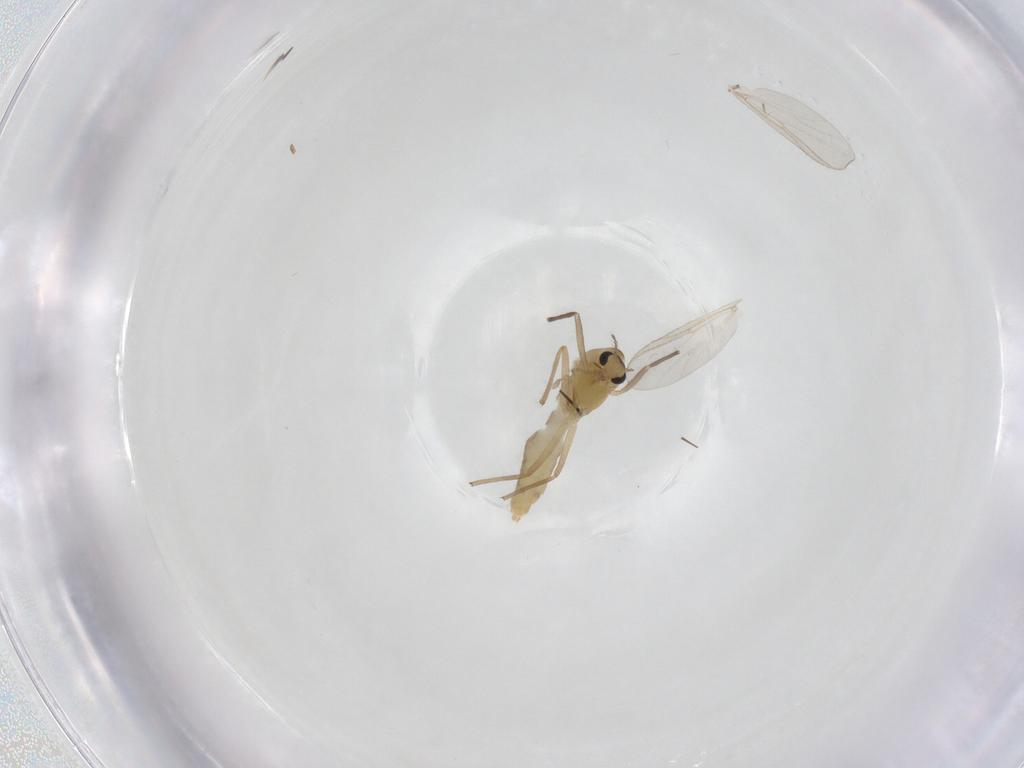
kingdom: Animalia
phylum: Arthropoda
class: Insecta
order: Diptera
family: Chironomidae
